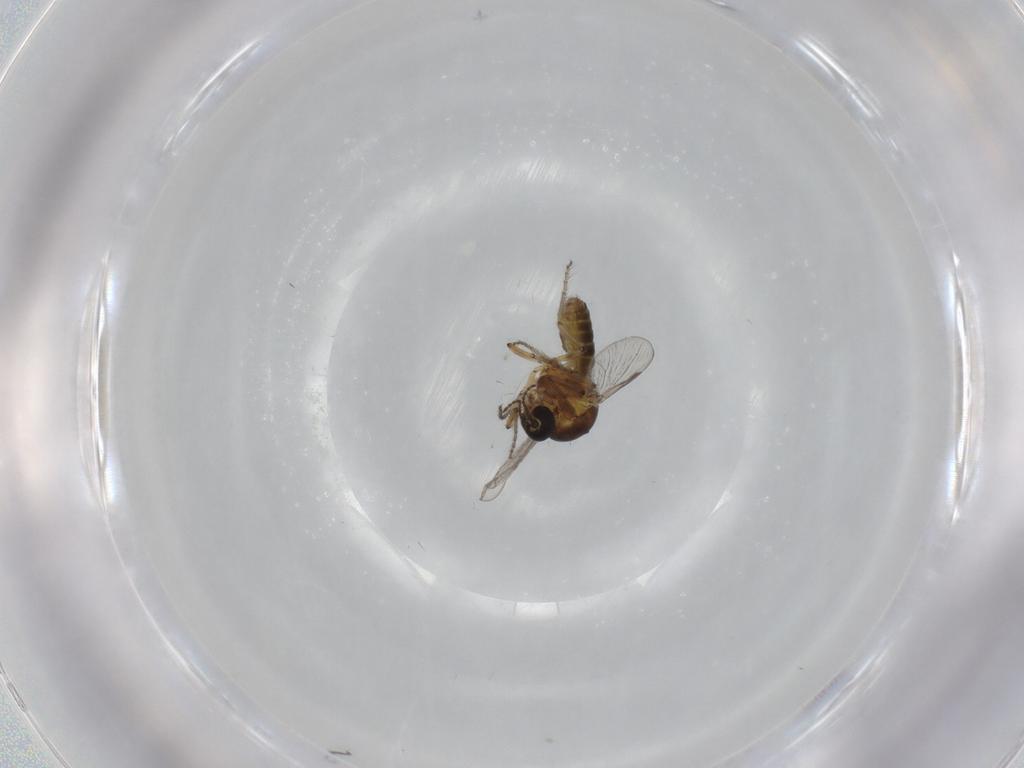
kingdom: Animalia
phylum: Arthropoda
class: Insecta
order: Diptera
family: Ceratopogonidae
